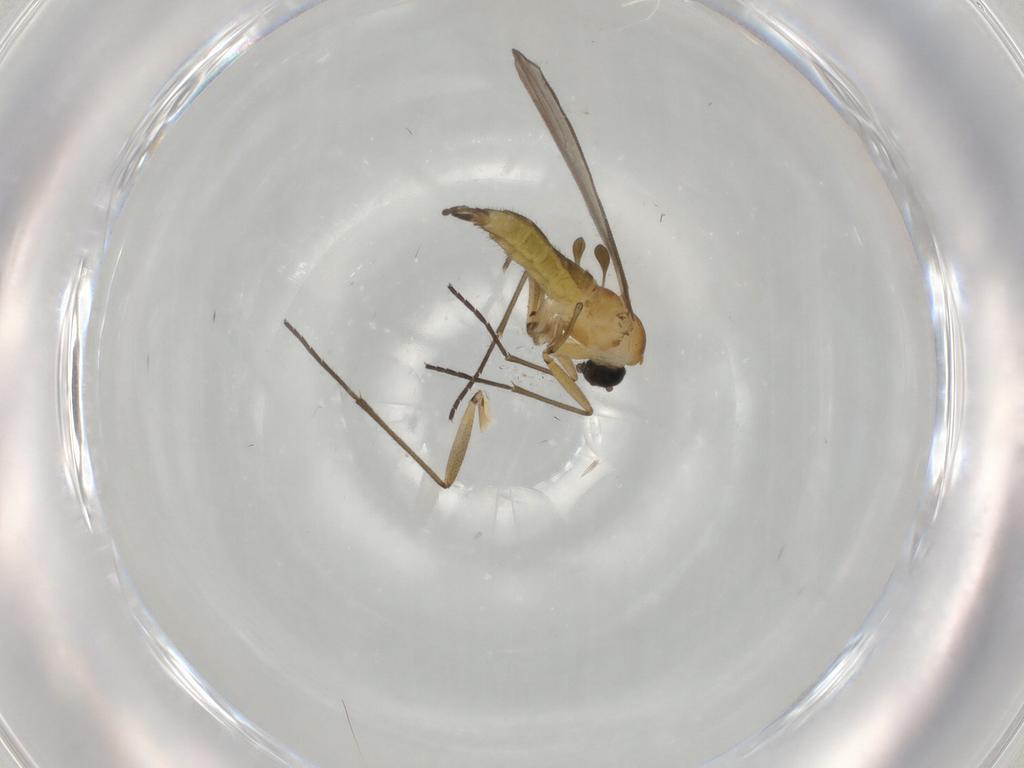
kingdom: Animalia
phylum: Arthropoda
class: Insecta
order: Diptera
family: Sciaridae
